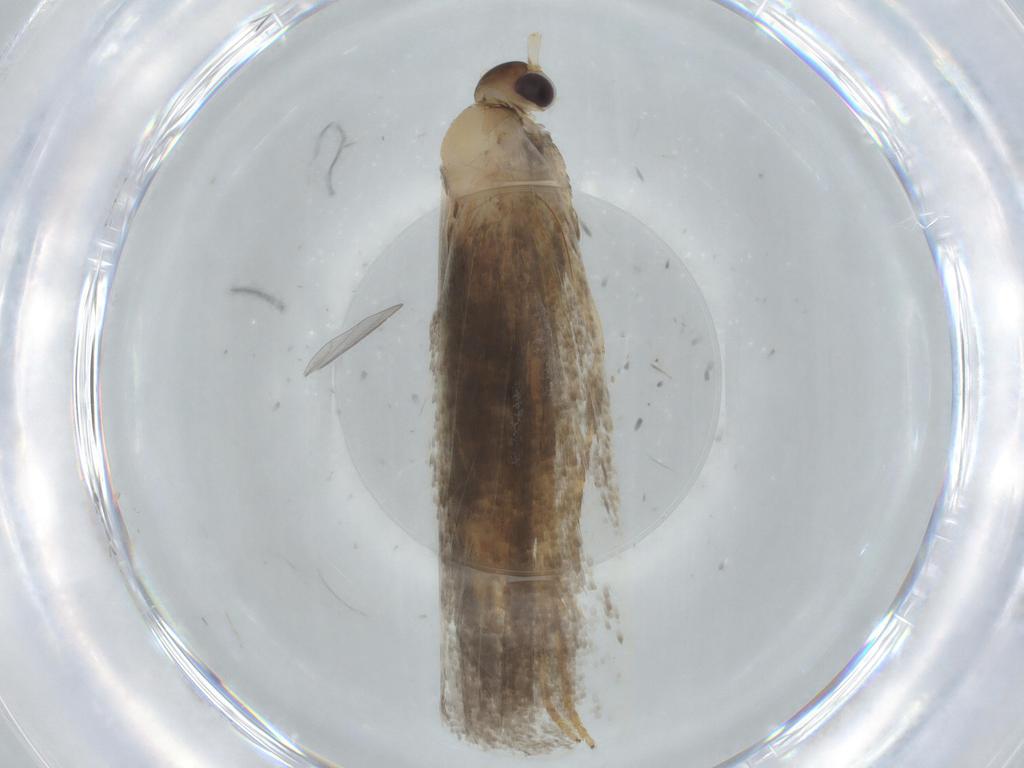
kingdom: Animalia
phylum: Arthropoda
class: Insecta
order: Lepidoptera
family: Lecithoceridae
